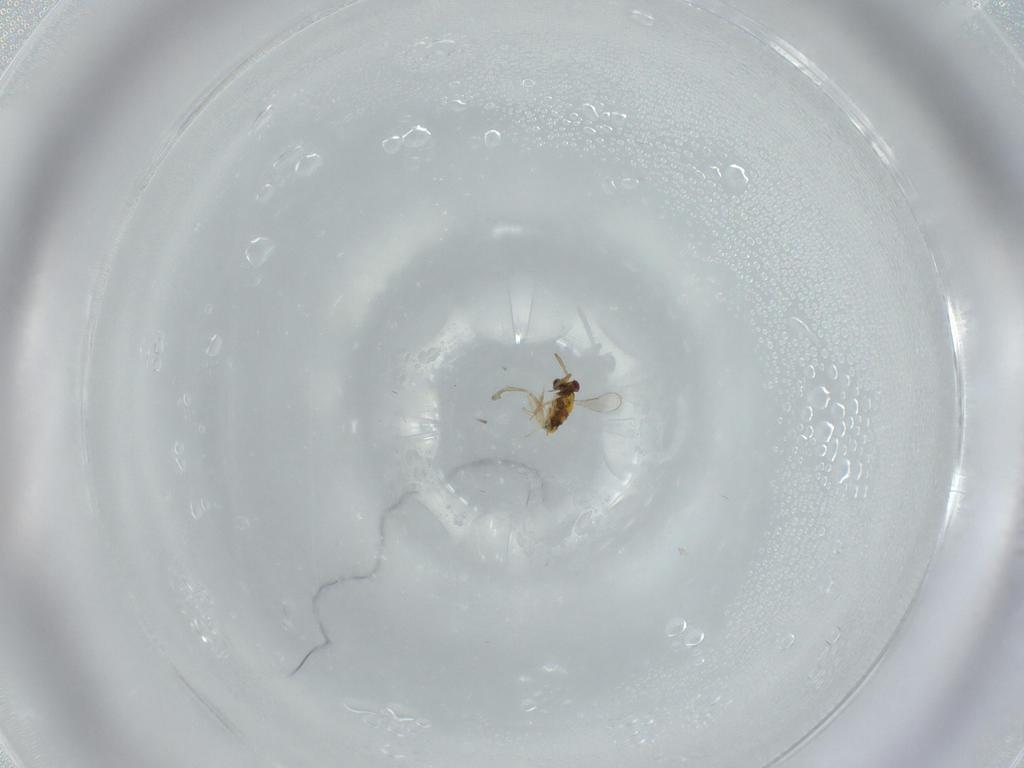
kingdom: Animalia
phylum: Arthropoda
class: Insecta
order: Hymenoptera
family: Aphelinidae
